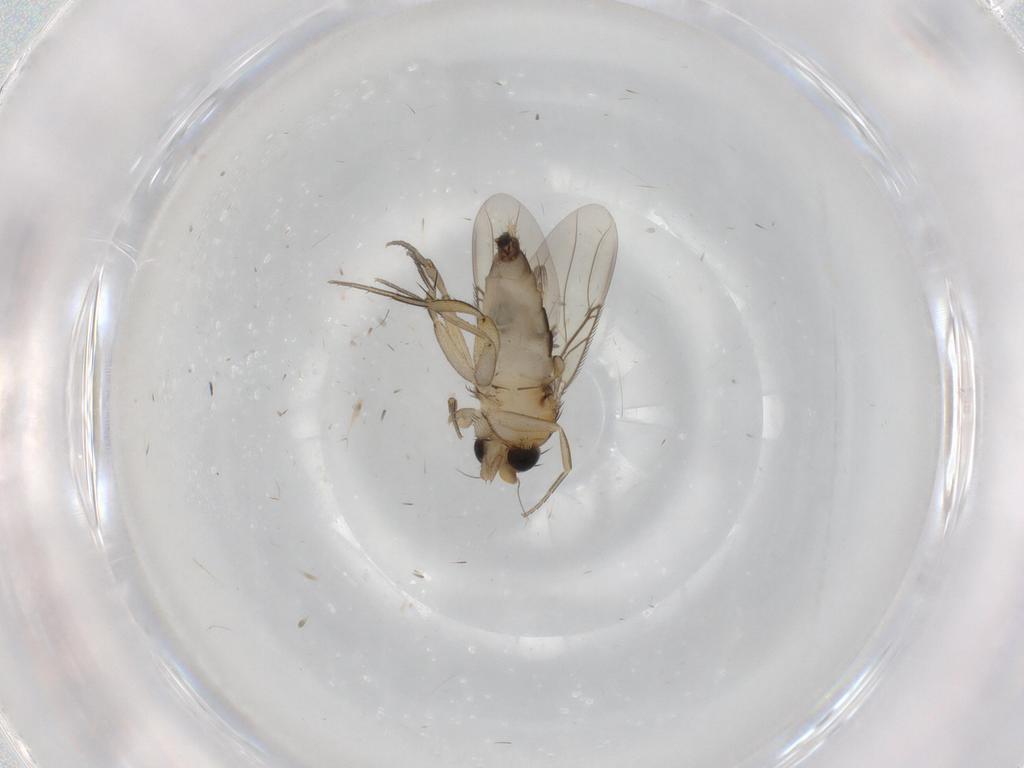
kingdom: Animalia
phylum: Arthropoda
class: Insecta
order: Diptera
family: Phoridae
